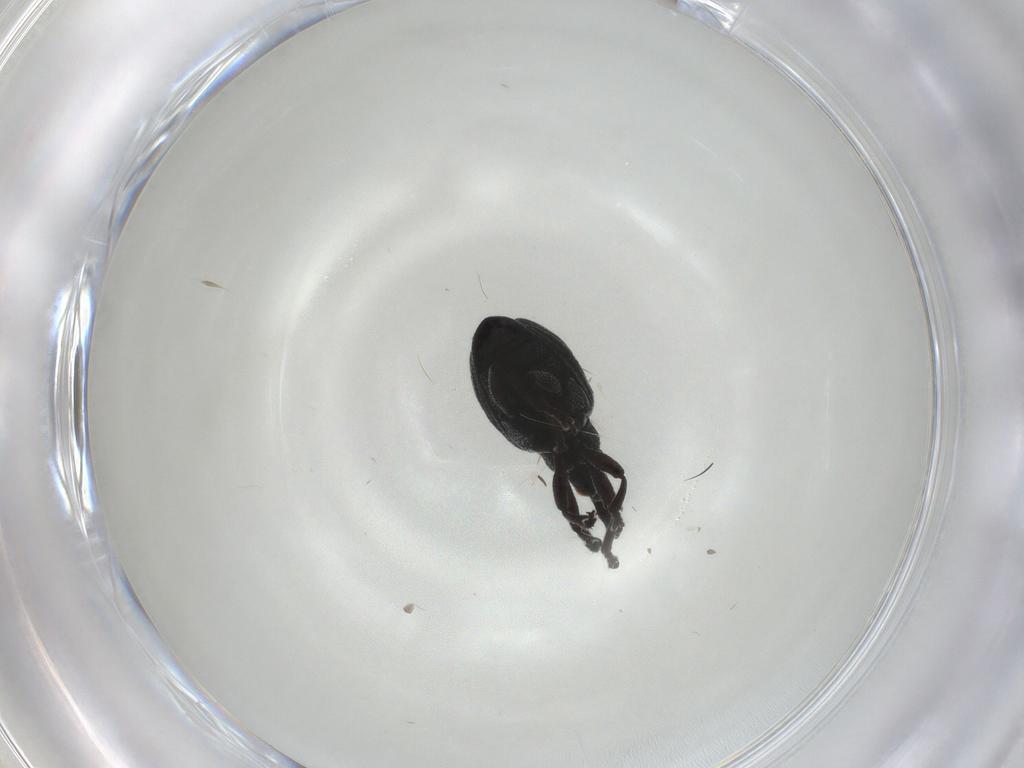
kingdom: Animalia
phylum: Arthropoda
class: Insecta
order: Coleoptera
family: Brentidae
